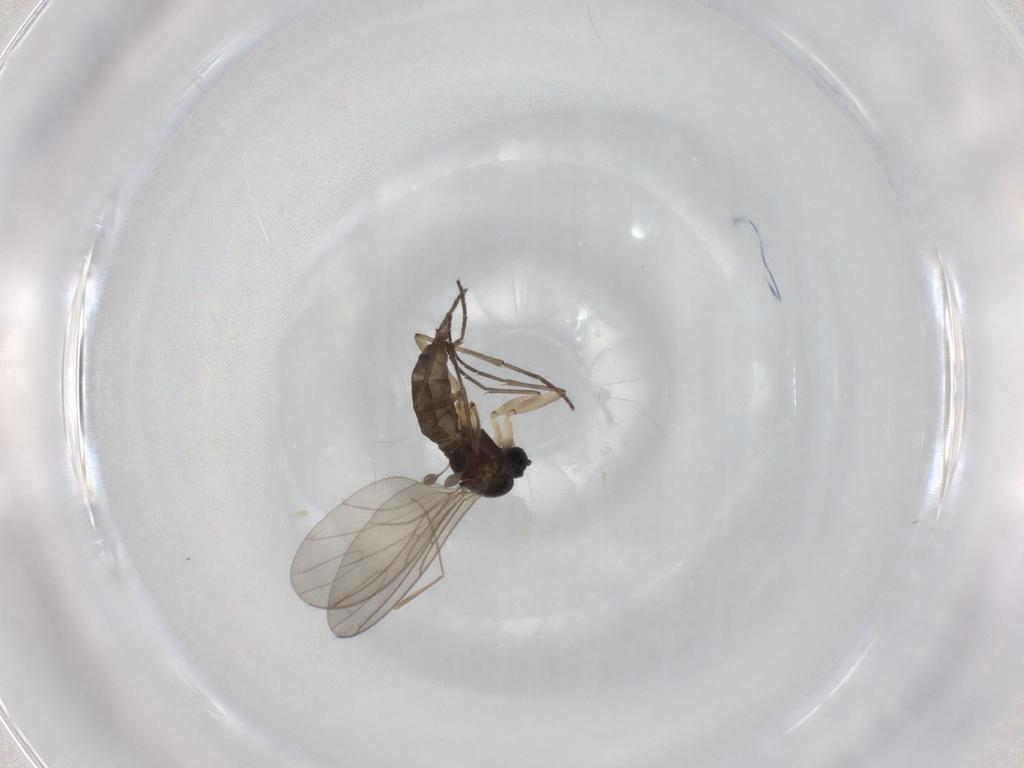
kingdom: Animalia
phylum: Arthropoda
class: Insecta
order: Diptera
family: Sciaridae
